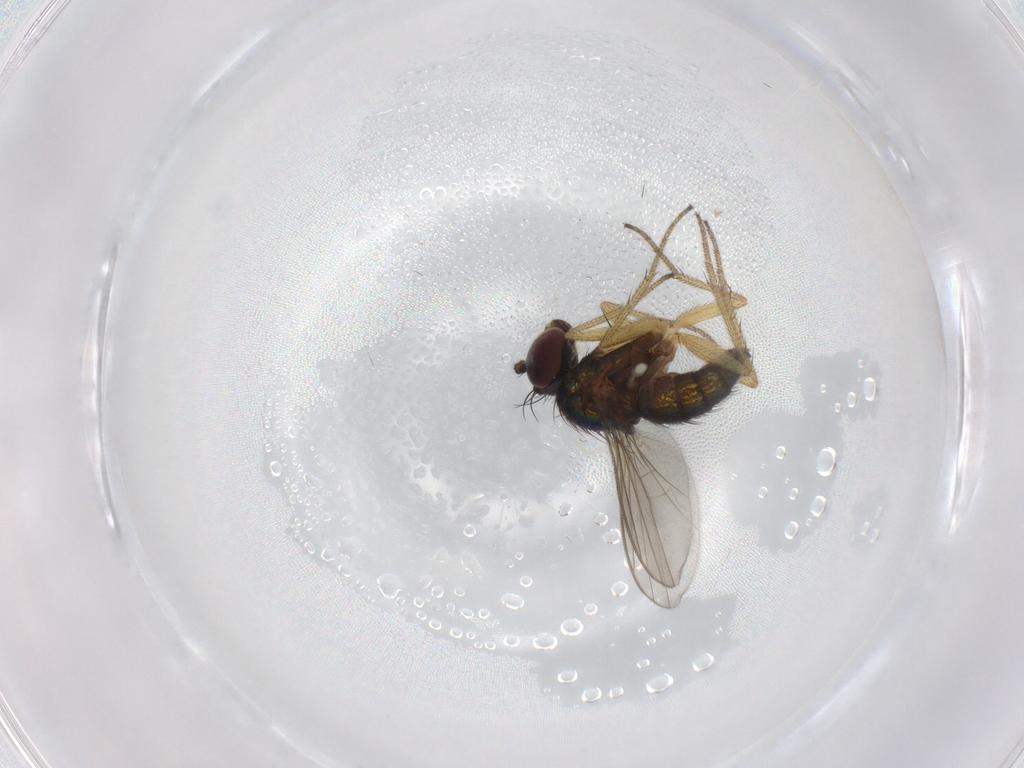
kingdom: Animalia
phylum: Arthropoda
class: Insecta
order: Diptera
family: Chironomidae
